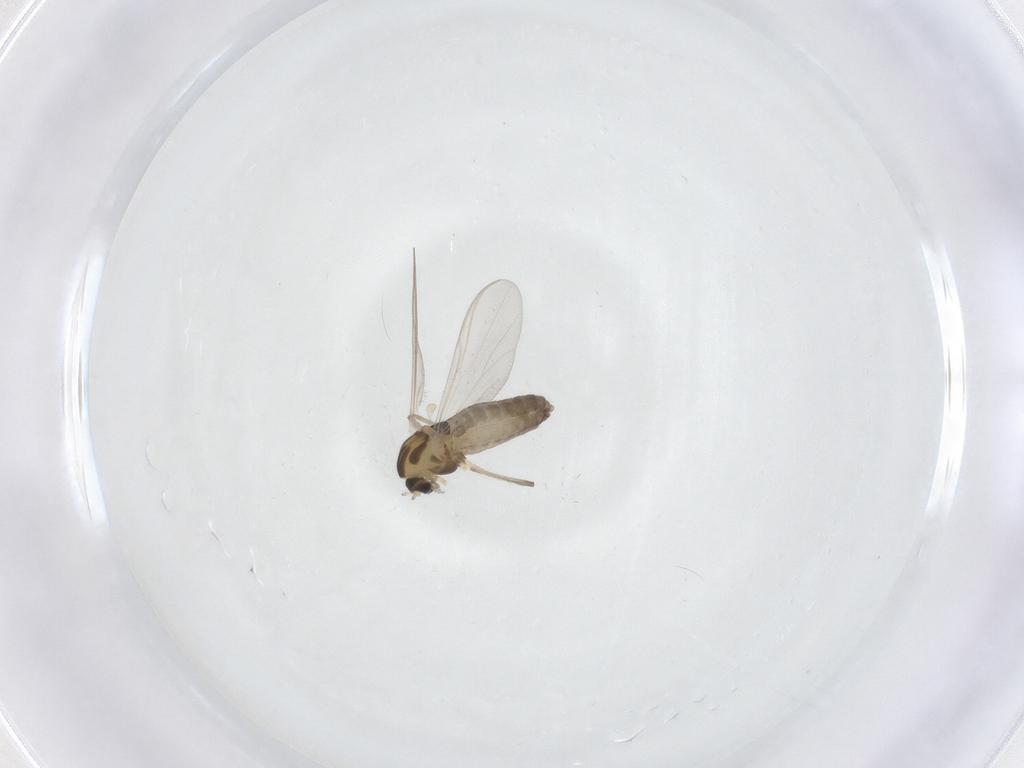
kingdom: Animalia
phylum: Arthropoda
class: Insecta
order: Diptera
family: Chironomidae
